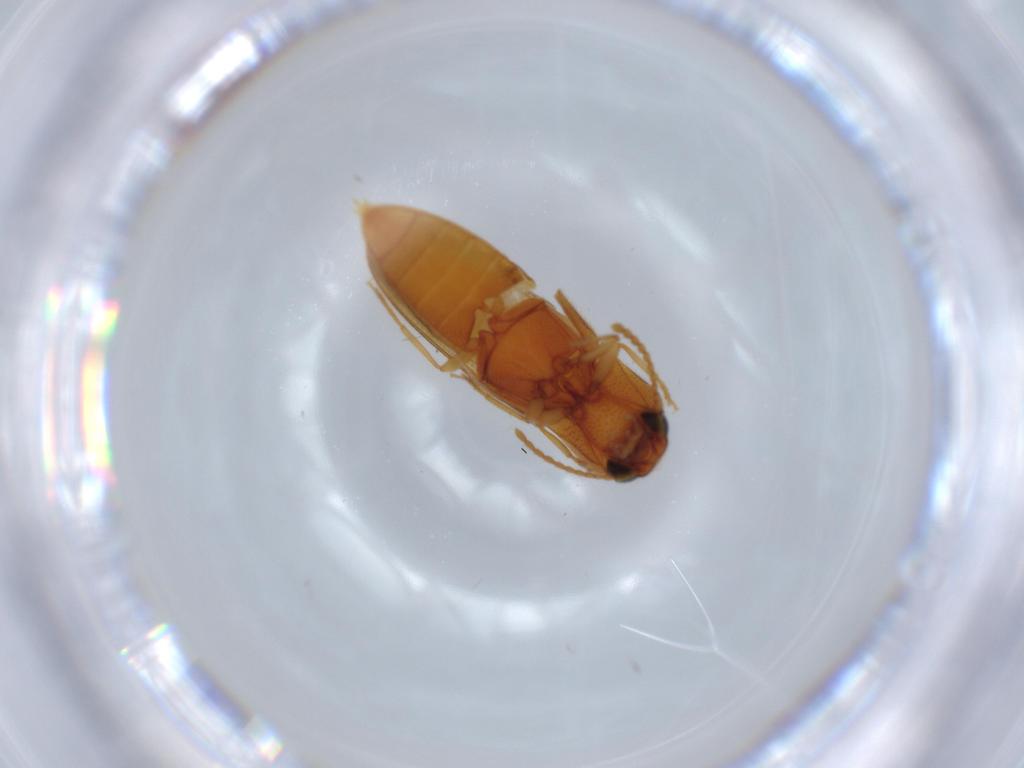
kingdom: Animalia
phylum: Arthropoda
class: Insecta
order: Coleoptera
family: Elateridae
